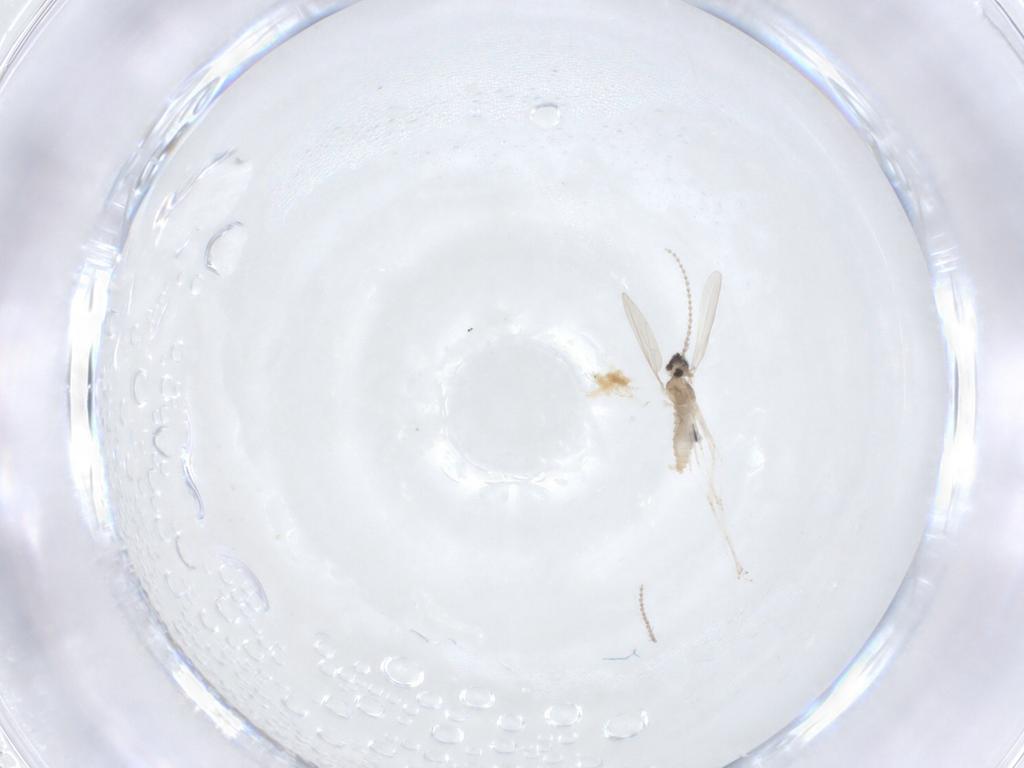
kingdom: Animalia
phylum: Arthropoda
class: Insecta
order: Diptera
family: Cecidomyiidae
